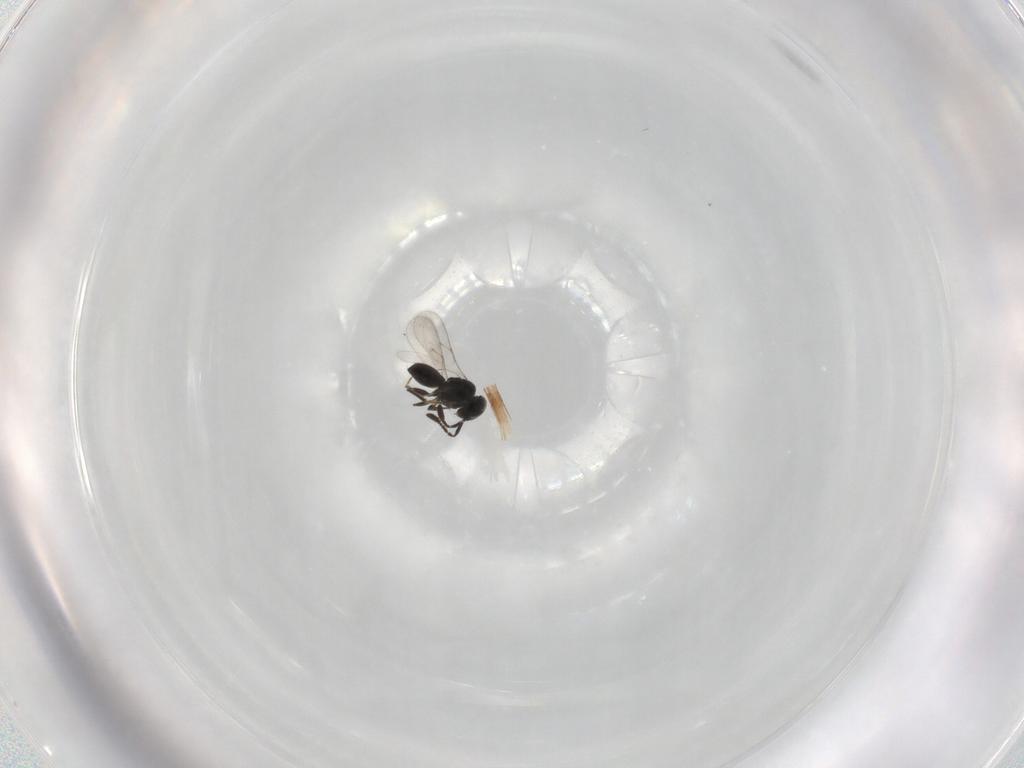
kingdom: Animalia
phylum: Arthropoda
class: Insecta
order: Hymenoptera
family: Scelionidae
